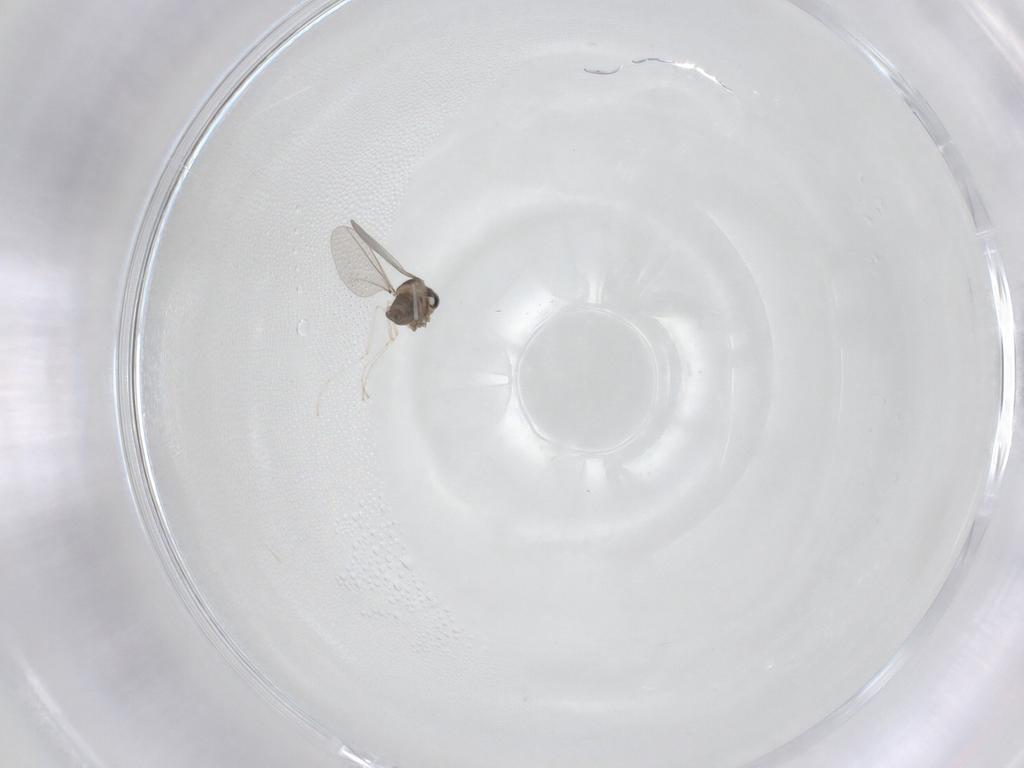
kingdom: Animalia
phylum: Arthropoda
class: Insecta
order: Diptera
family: Cecidomyiidae
